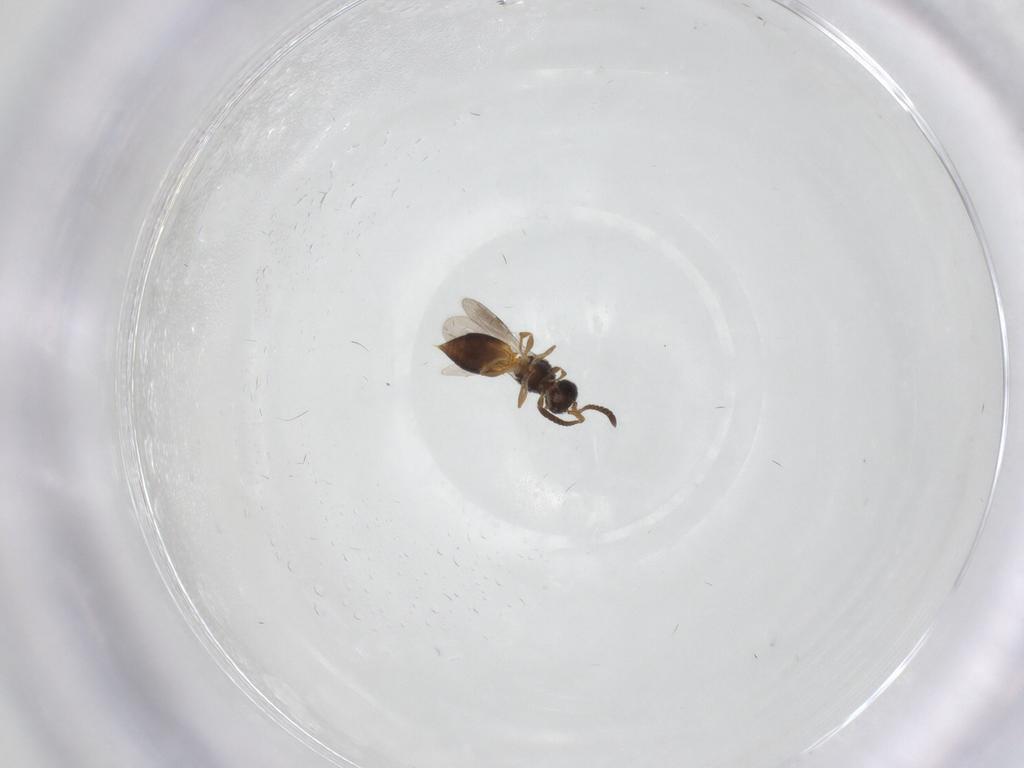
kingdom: Animalia
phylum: Arthropoda
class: Insecta
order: Hymenoptera
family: Megaspilidae
